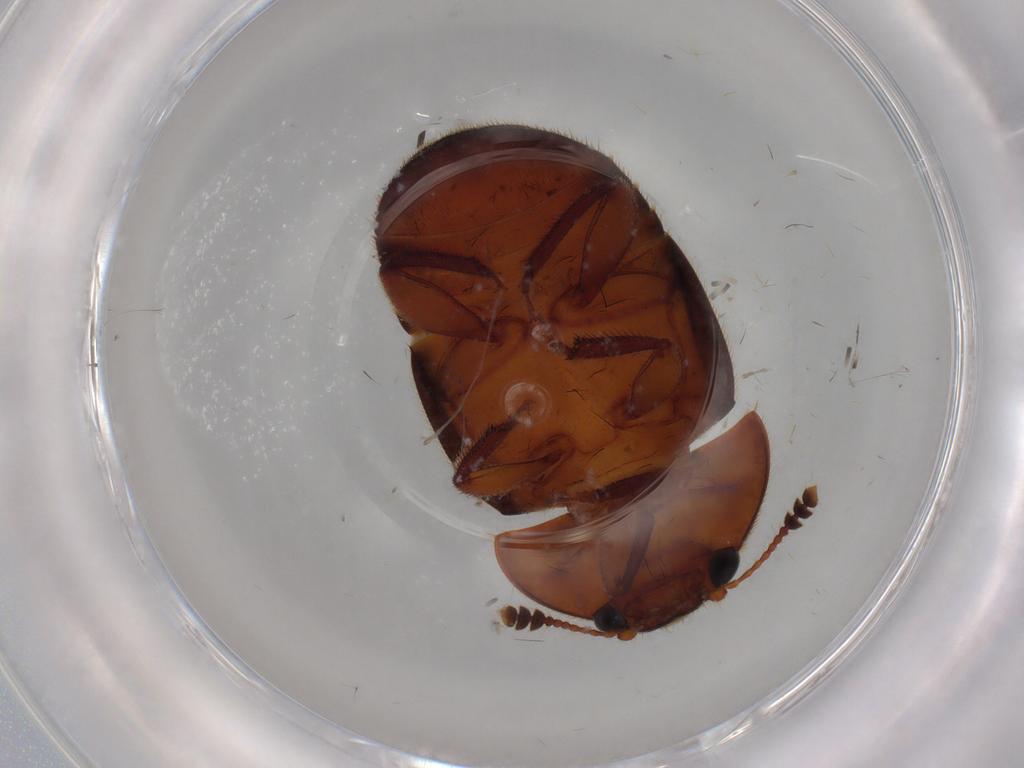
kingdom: Animalia
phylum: Arthropoda
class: Insecta
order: Coleoptera
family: Nitidulidae
